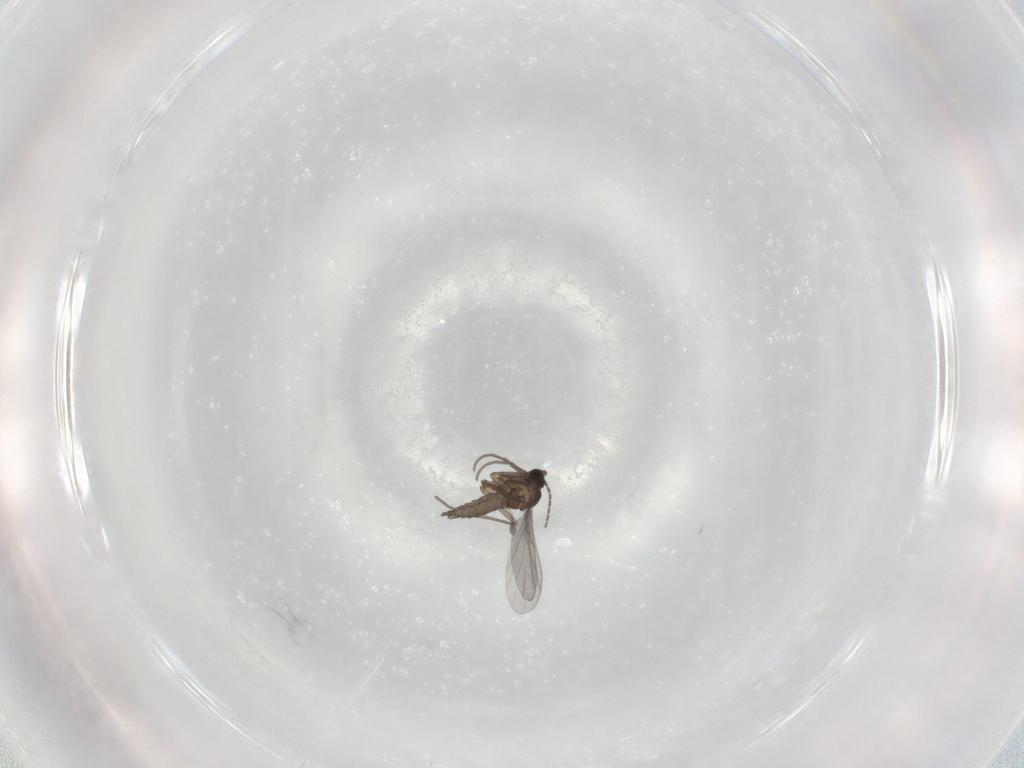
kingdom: Animalia
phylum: Arthropoda
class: Insecta
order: Diptera
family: Sciaridae
